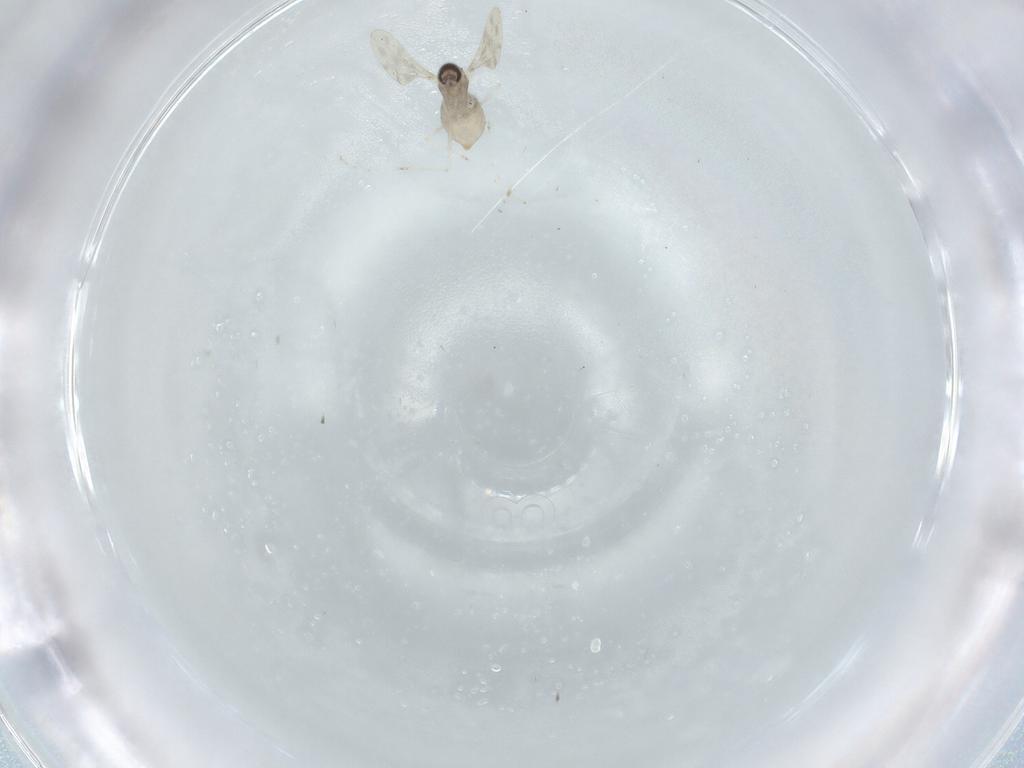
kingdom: Animalia
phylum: Arthropoda
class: Insecta
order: Diptera
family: Cecidomyiidae
